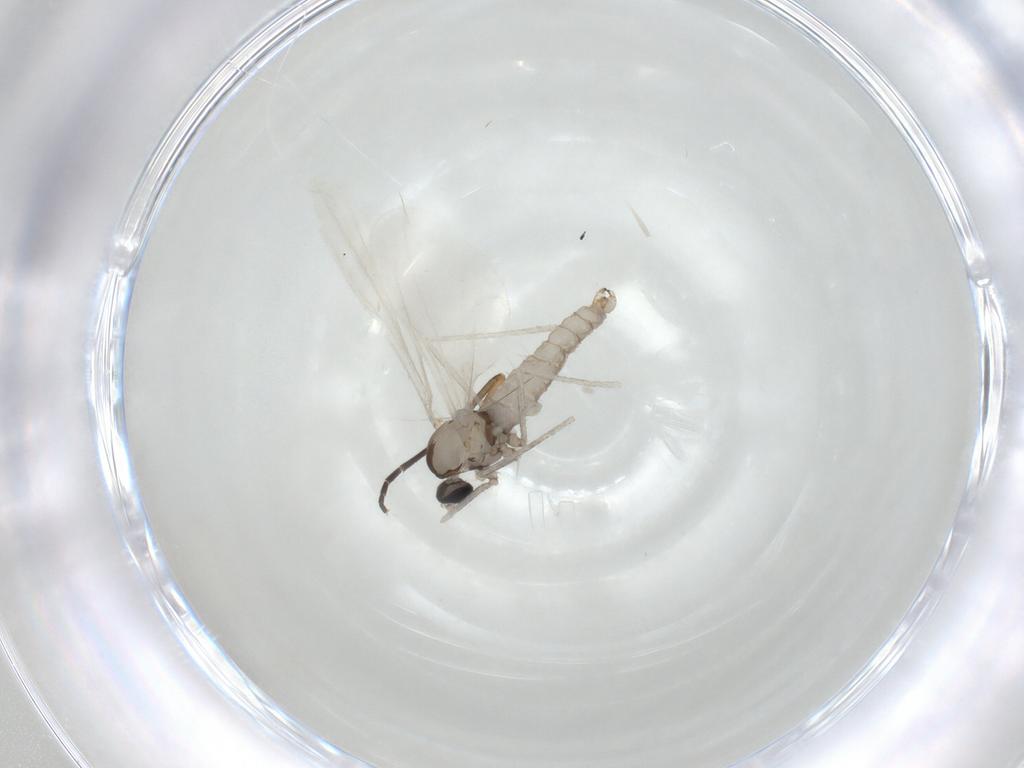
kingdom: Animalia
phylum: Arthropoda
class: Insecta
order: Diptera
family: Cecidomyiidae
